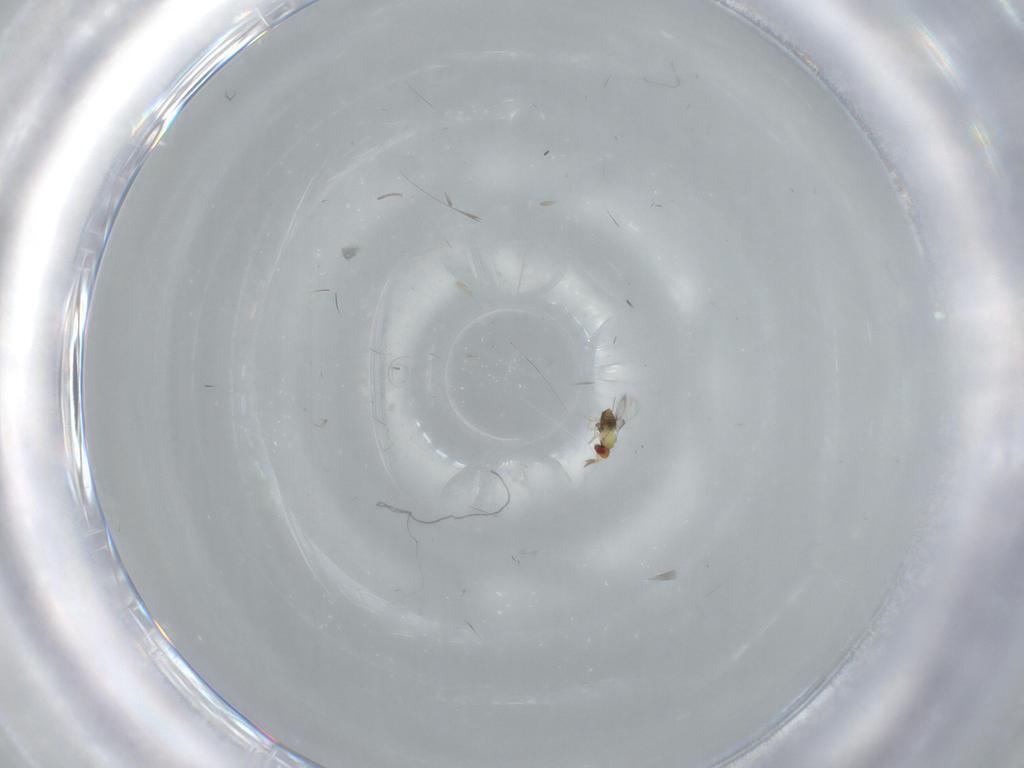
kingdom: Animalia
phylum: Arthropoda
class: Insecta
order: Hymenoptera
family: Trichogrammatidae
